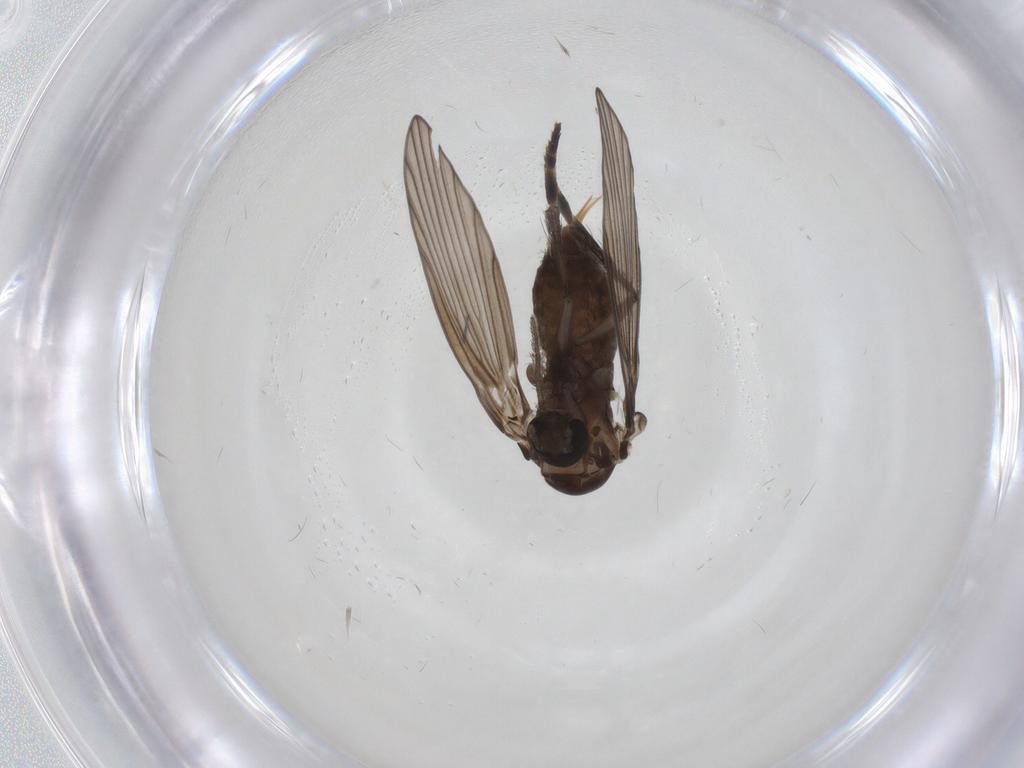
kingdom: Animalia
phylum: Arthropoda
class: Insecta
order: Diptera
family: Psychodidae
